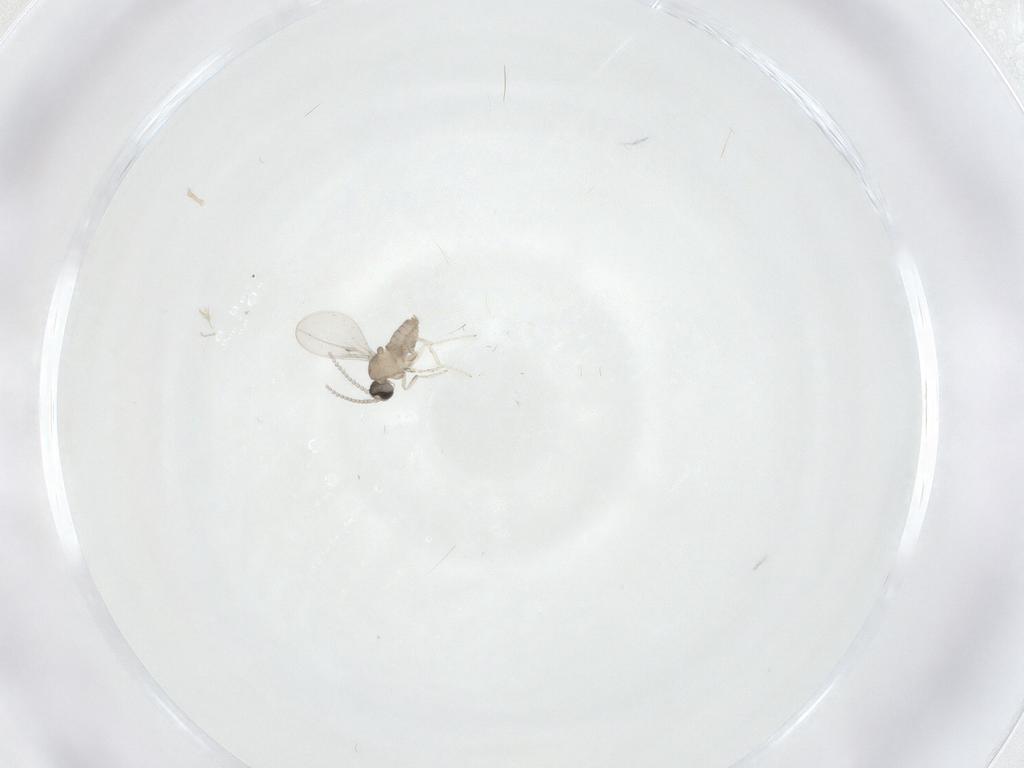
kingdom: Animalia
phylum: Arthropoda
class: Insecta
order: Diptera
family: Cecidomyiidae
